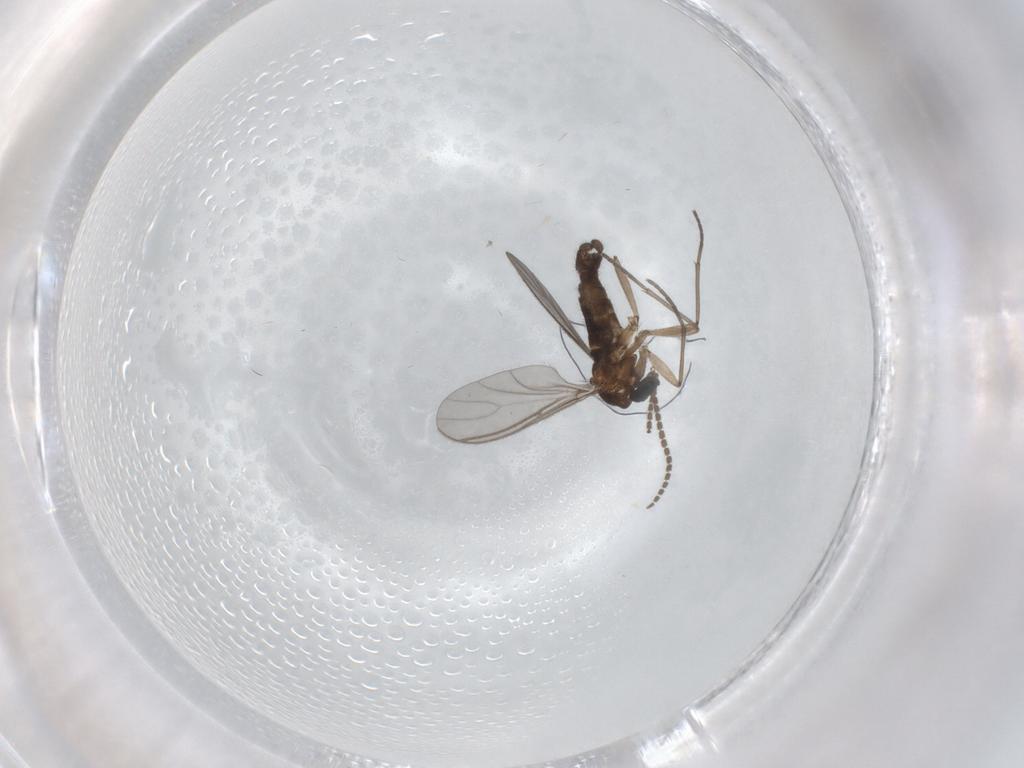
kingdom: Animalia
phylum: Arthropoda
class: Insecta
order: Diptera
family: Sciaridae
